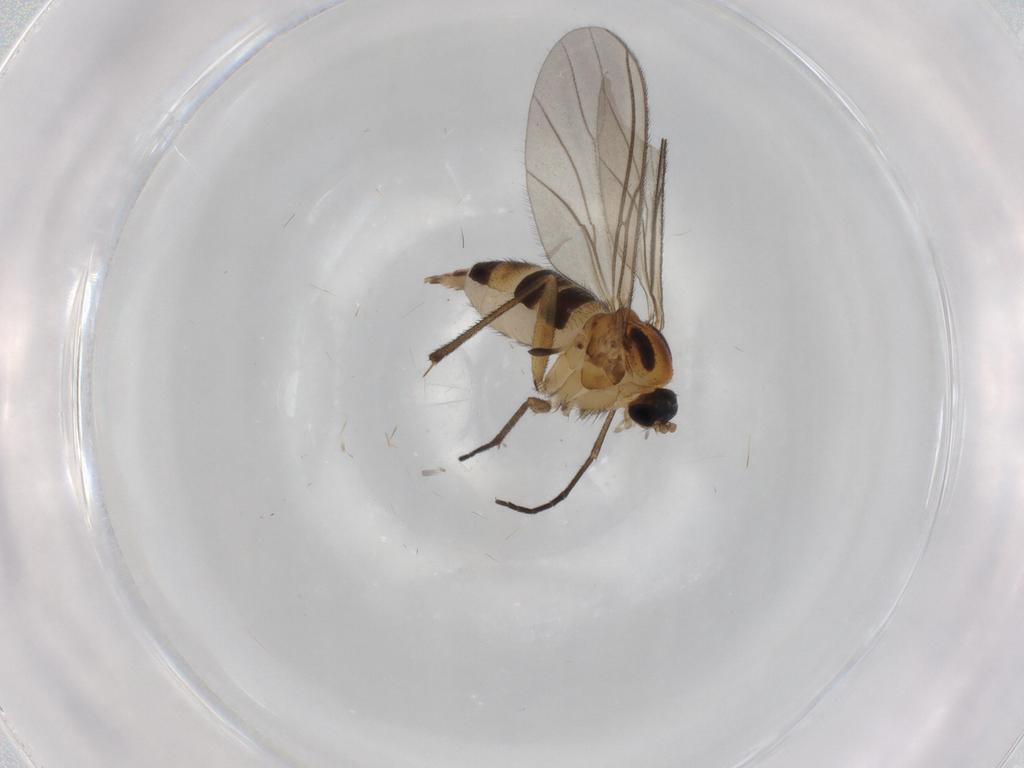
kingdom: Animalia
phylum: Arthropoda
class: Insecta
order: Diptera
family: Sciaridae
